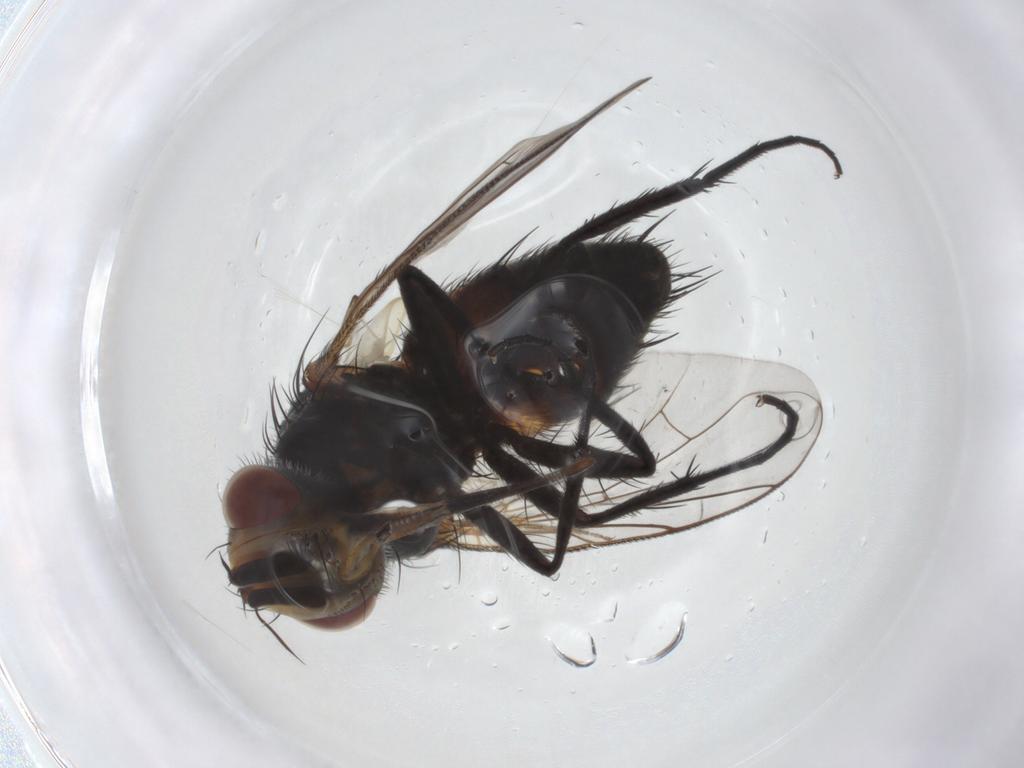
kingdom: Animalia
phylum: Arthropoda
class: Insecta
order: Diptera
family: Tachinidae
